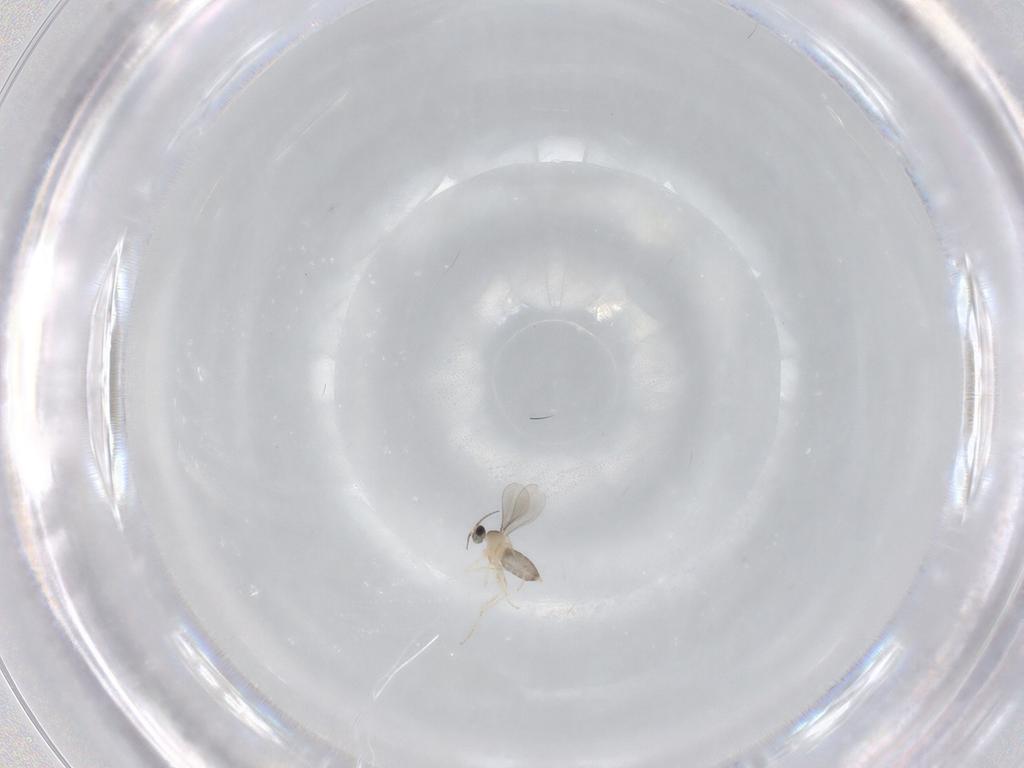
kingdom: Animalia
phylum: Arthropoda
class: Insecta
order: Diptera
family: Cecidomyiidae
